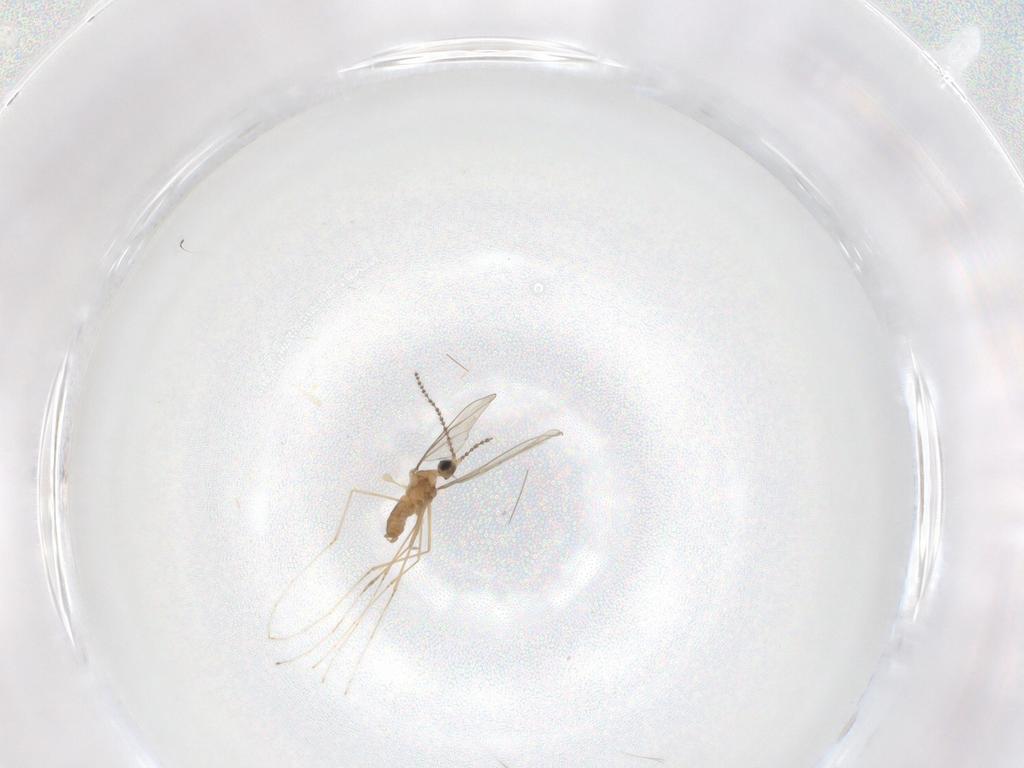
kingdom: Animalia
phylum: Arthropoda
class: Insecta
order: Diptera
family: Cecidomyiidae
